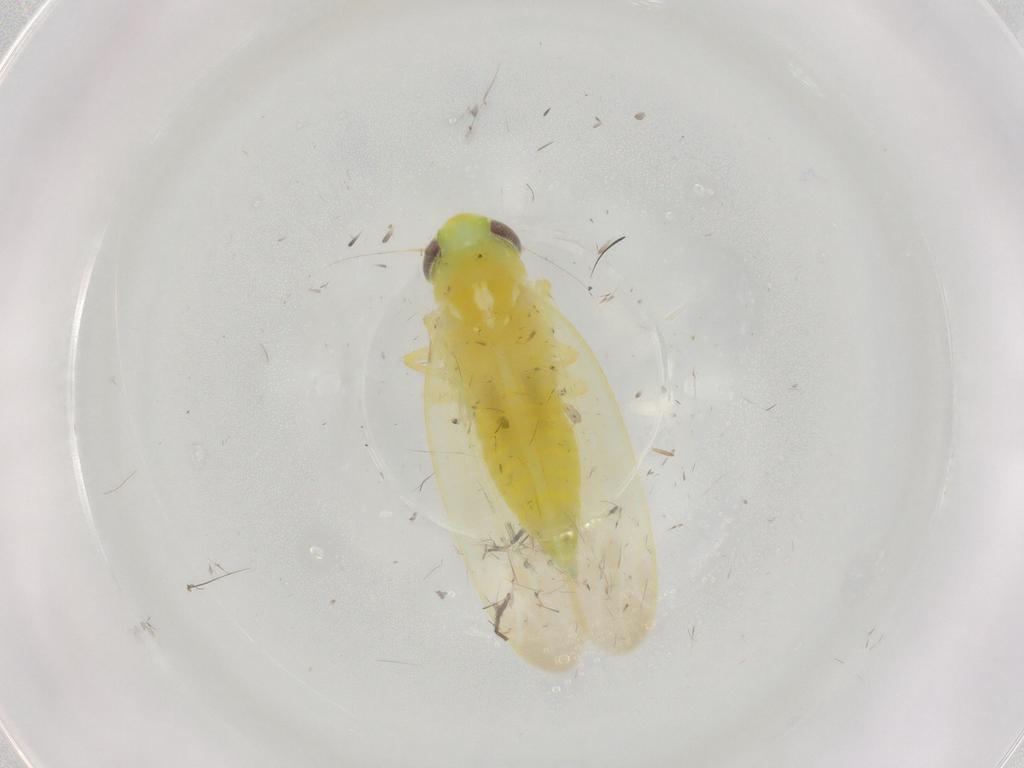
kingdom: Animalia
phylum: Arthropoda
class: Insecta
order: Hemiptera
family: Cicadellidae
